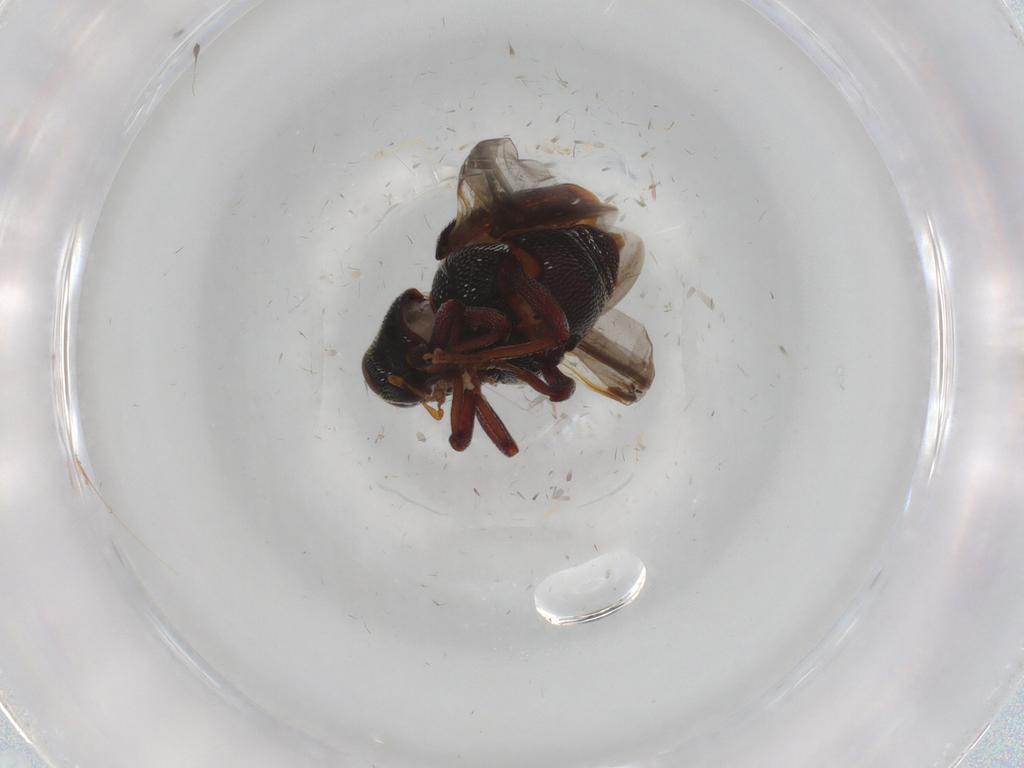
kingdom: Animalia
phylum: Arthropoda
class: Insecta
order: Coleoptera
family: Curculionidae
